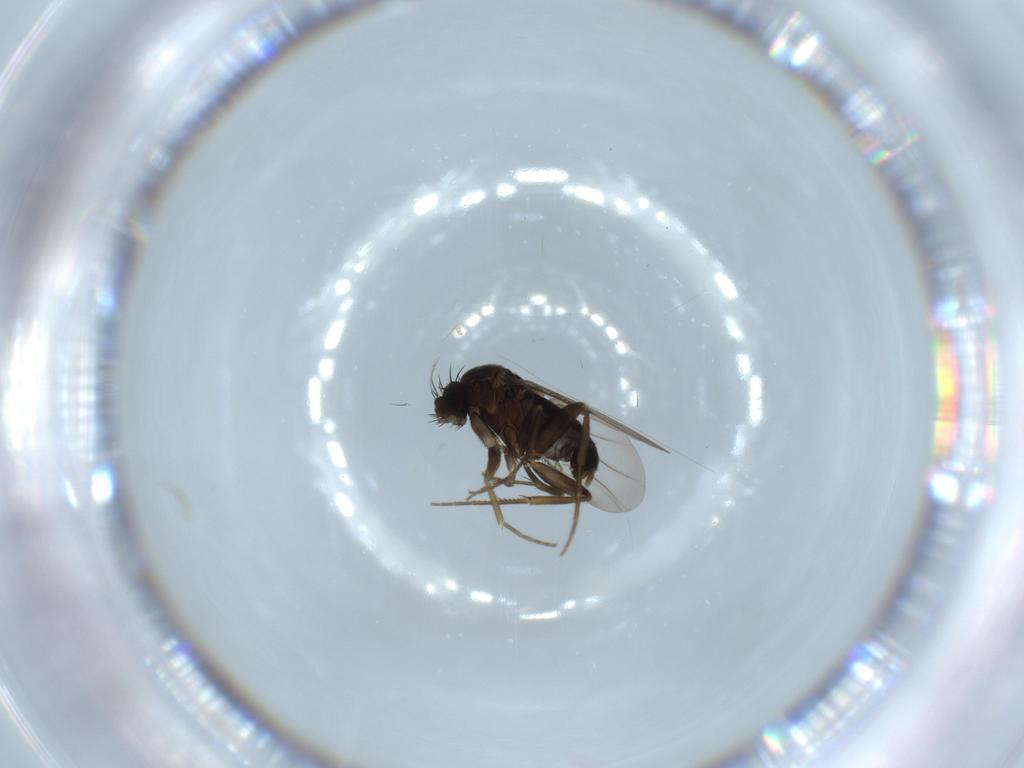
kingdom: Animalia
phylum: Arthropoda
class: Insecta
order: Diptera
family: Phoridae
